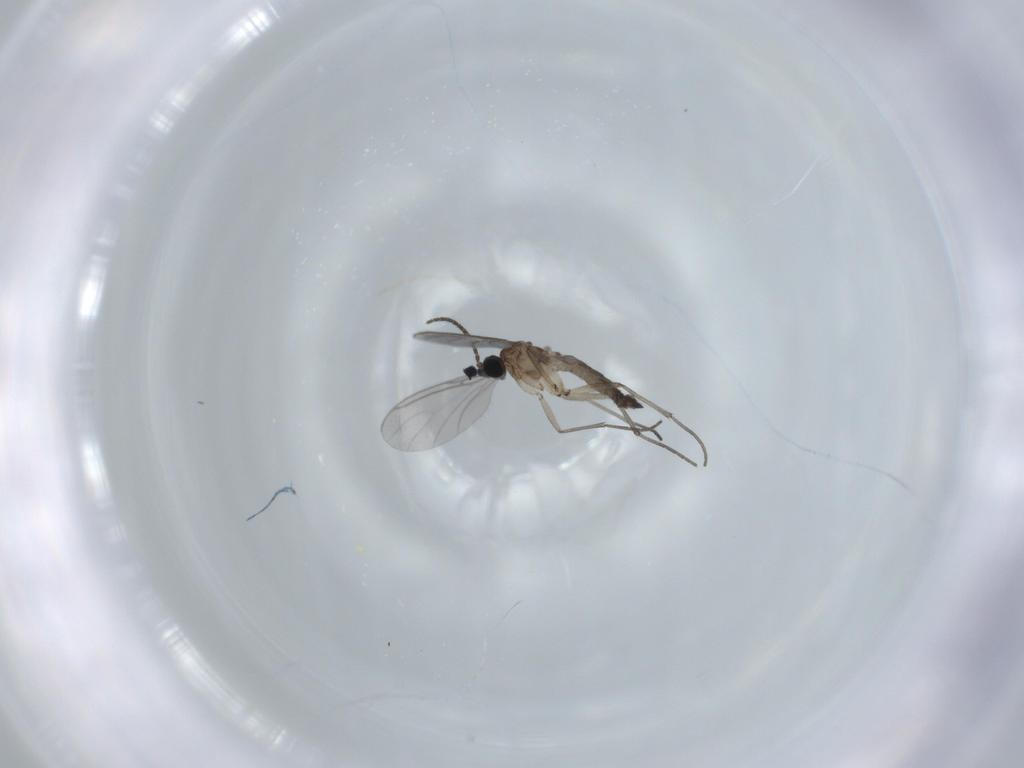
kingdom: Animalia
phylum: Arthropoda
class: Insecta
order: Diptera
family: Sciaridae
